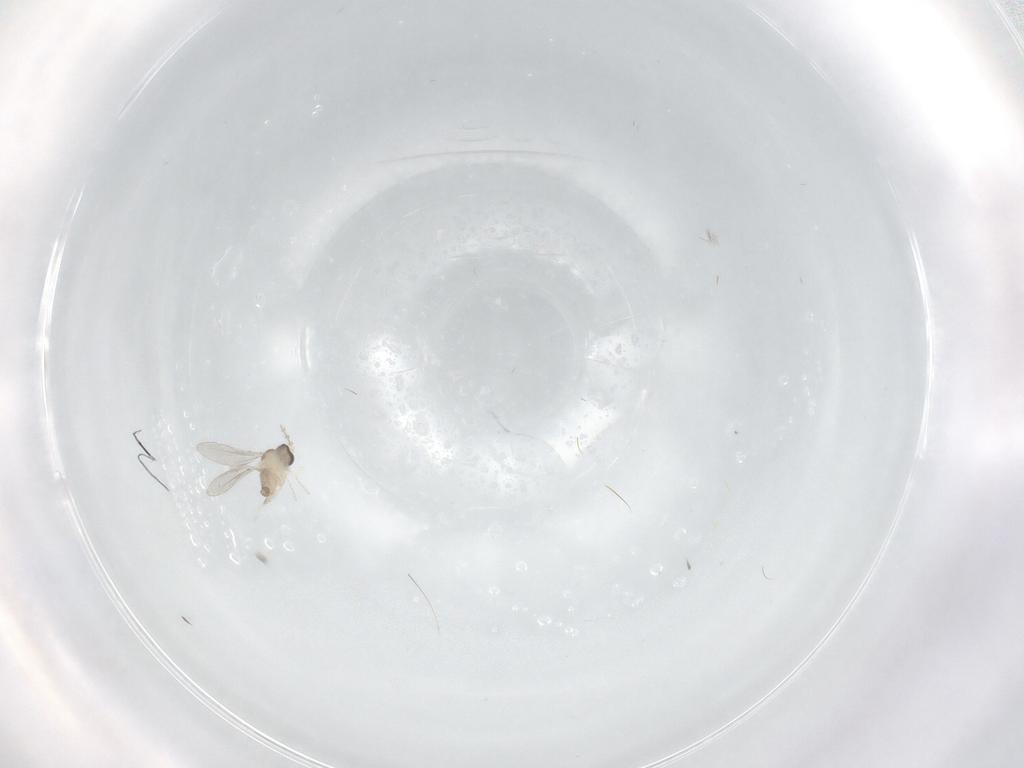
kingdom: Animalia
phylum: Arthropoda
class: Insecta
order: Diptera
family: Cecidomyiidae
